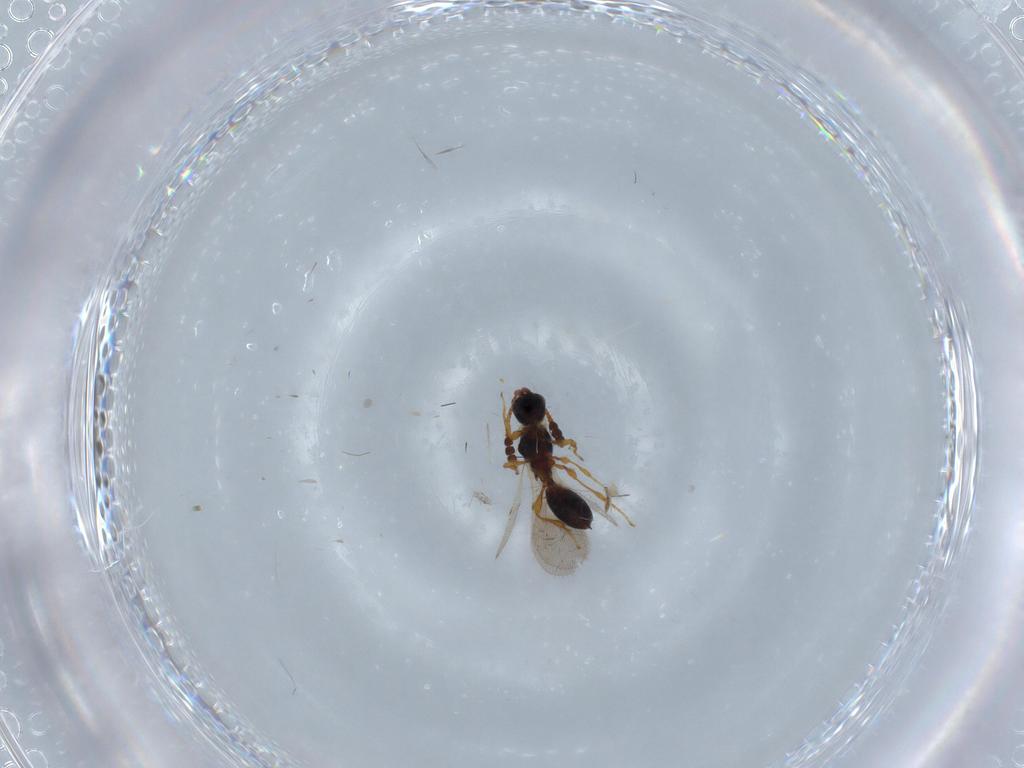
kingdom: Animalia
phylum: Arthropoda
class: Insecta
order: Hymenoptera
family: Diapriidae
